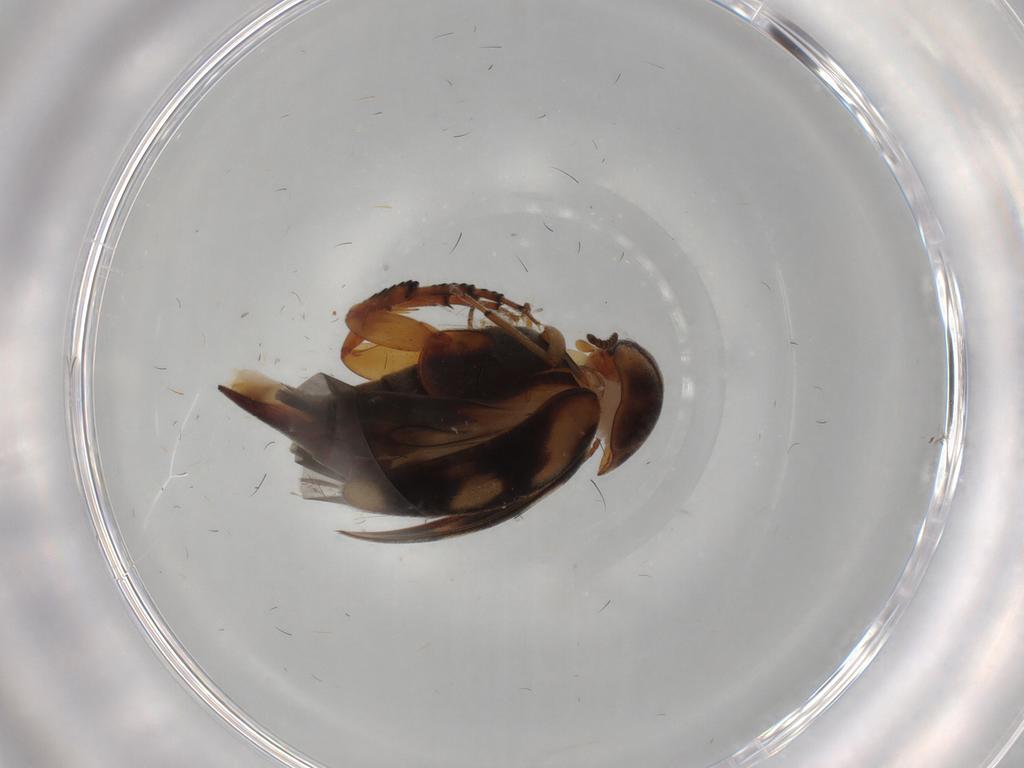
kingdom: Animalia
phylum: Arthropoda
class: Insecta
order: Coleoptera
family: Mordellidae
